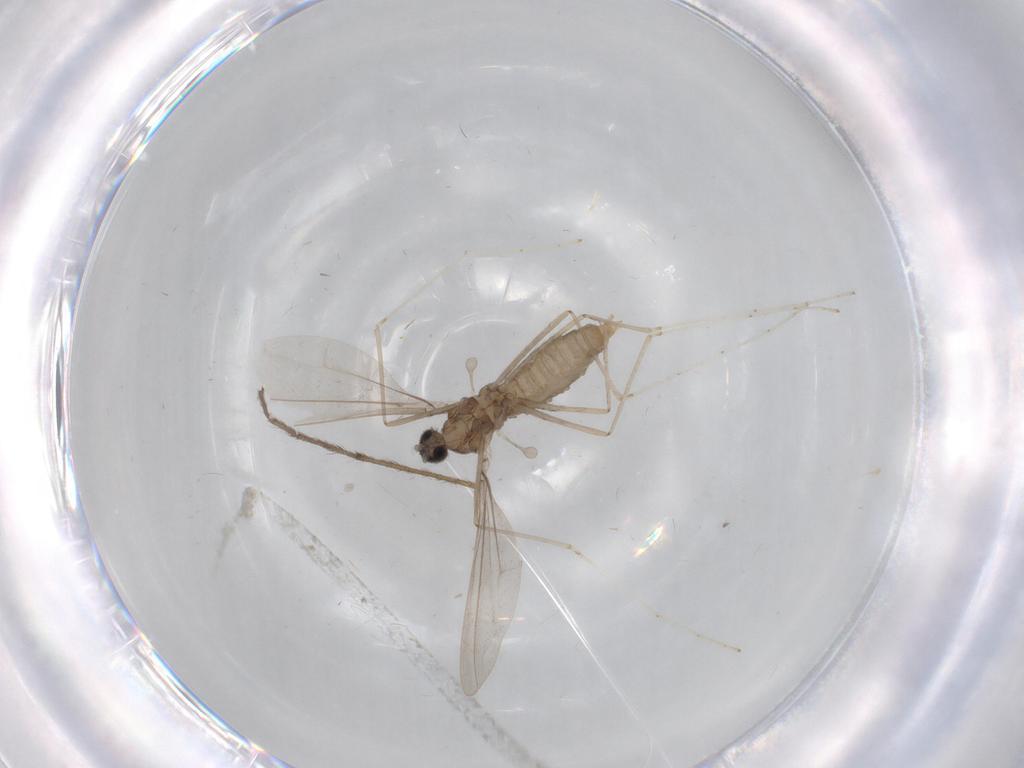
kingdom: Animalia
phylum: Arthropoda
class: Insecta
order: Diptera
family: Cecidomyiidae
